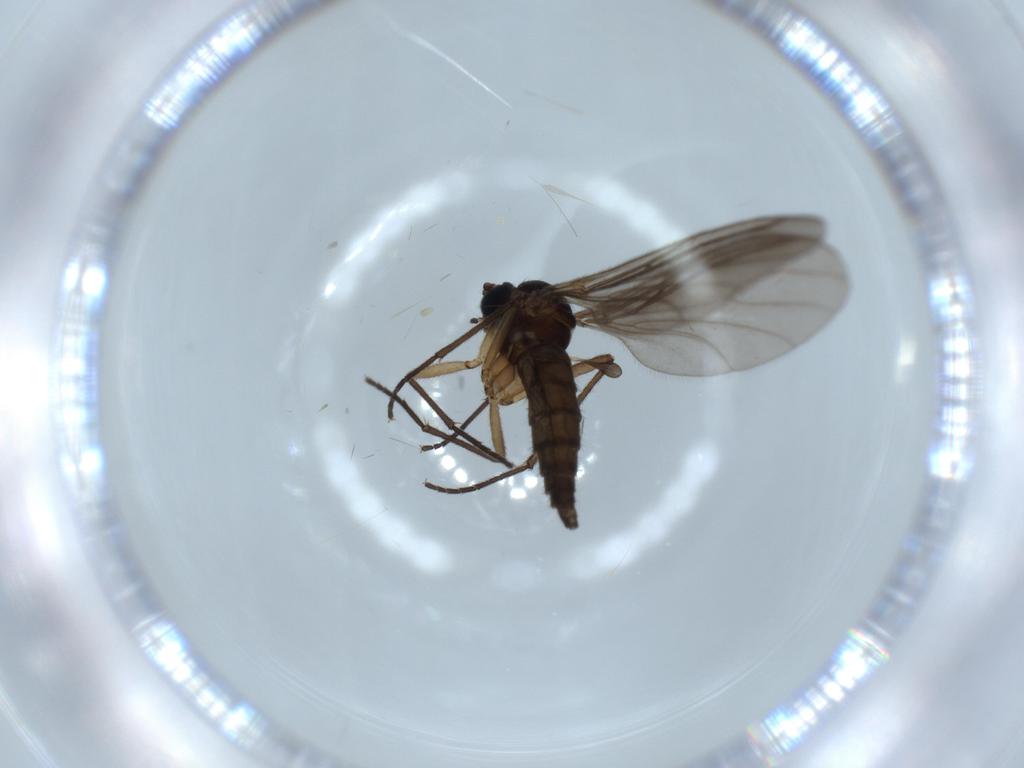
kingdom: Animalia
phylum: Arthropoda
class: Insecta
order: Diptera
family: Sciaridae
